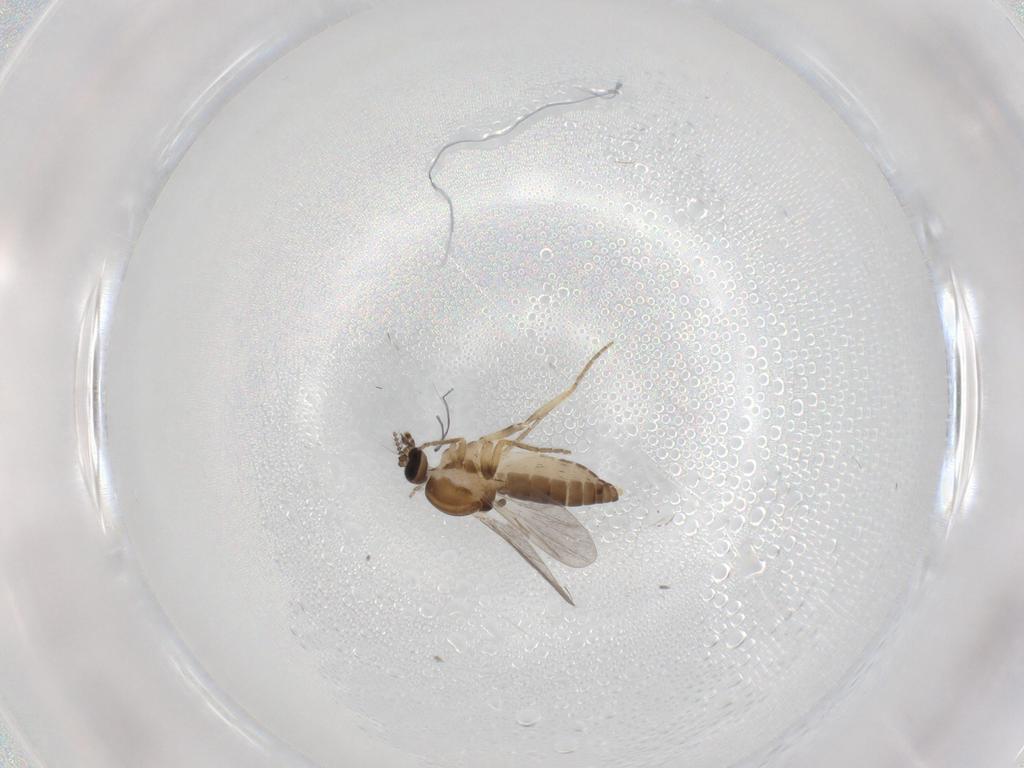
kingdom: Animalia
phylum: Arthropoda
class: Insecta
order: Diptera
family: Ceratopogonidae
